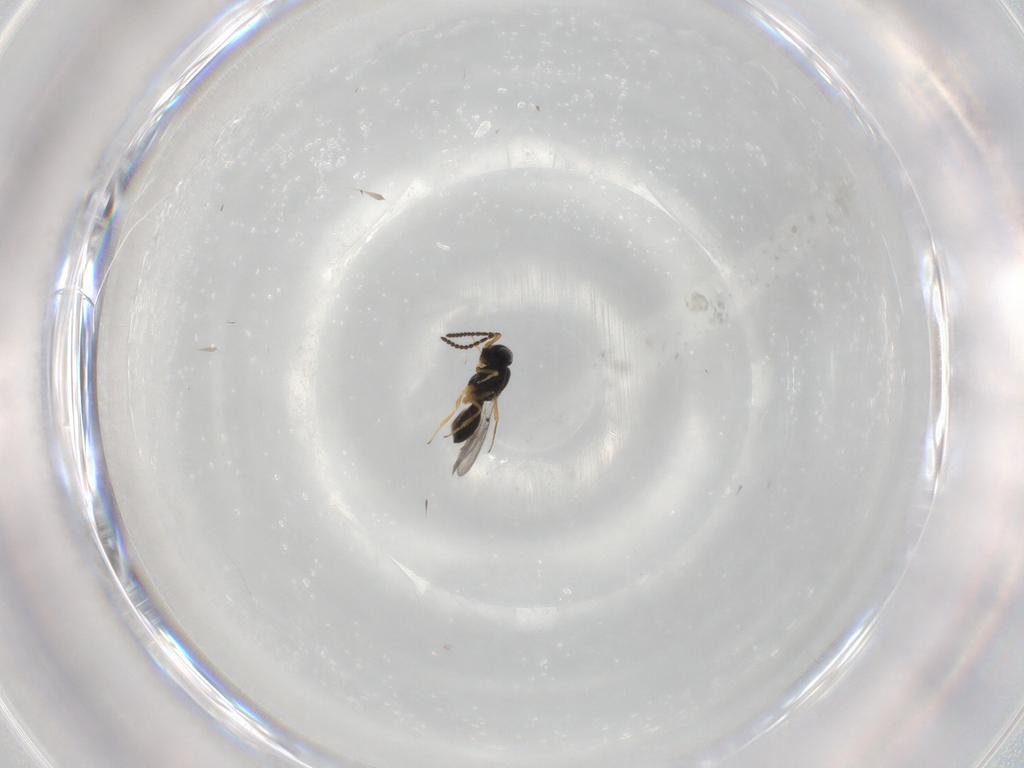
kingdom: Animalia
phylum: Arthropoda
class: Insecta
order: Hymenoptera
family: Scelionidae
